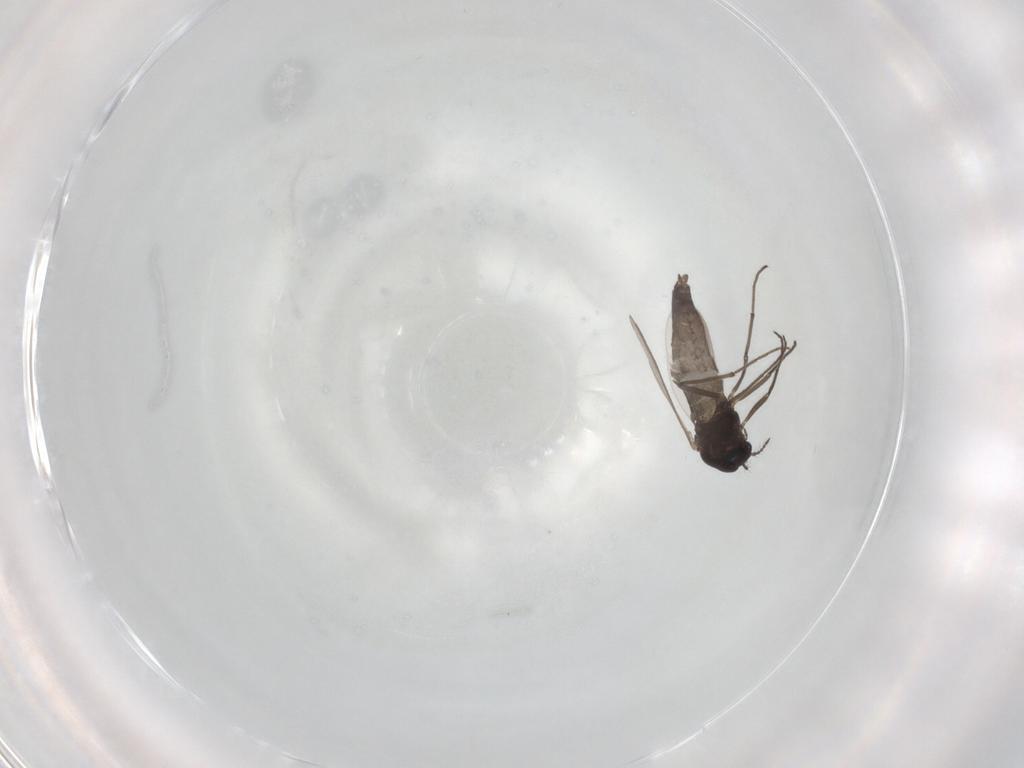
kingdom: Animalia
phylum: Arthropoda
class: Insecta
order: Diptera
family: Chironomidae
